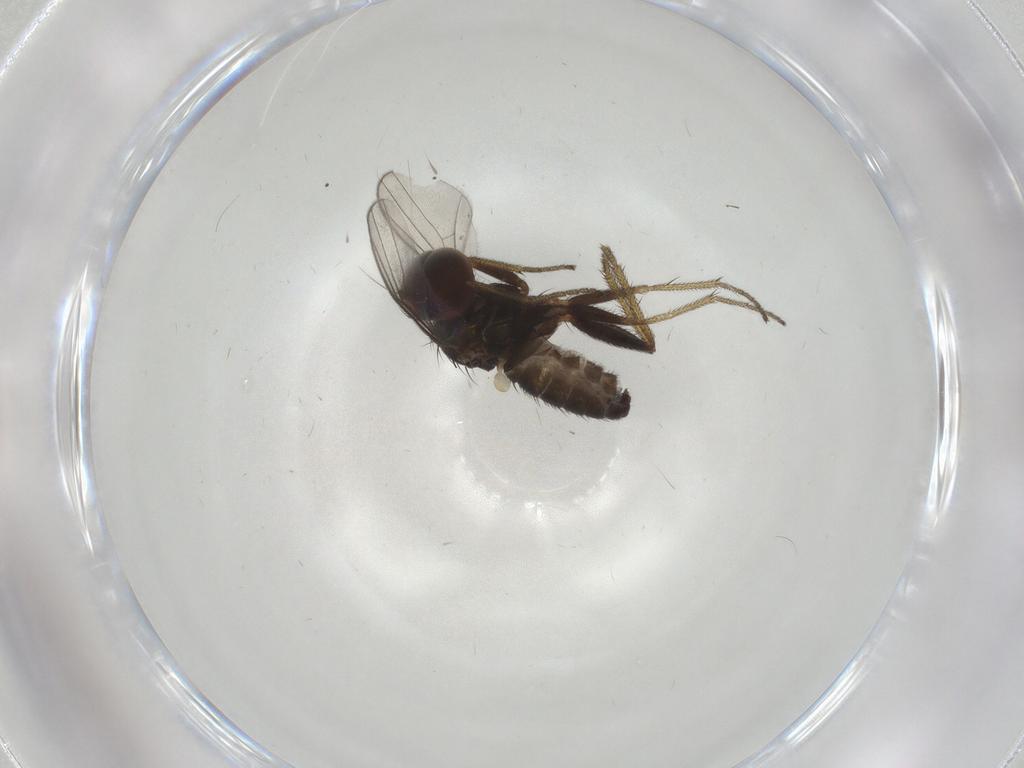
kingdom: Animalia
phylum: Arthropoda
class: Insecta
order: Diptera
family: Dolichopodidae
